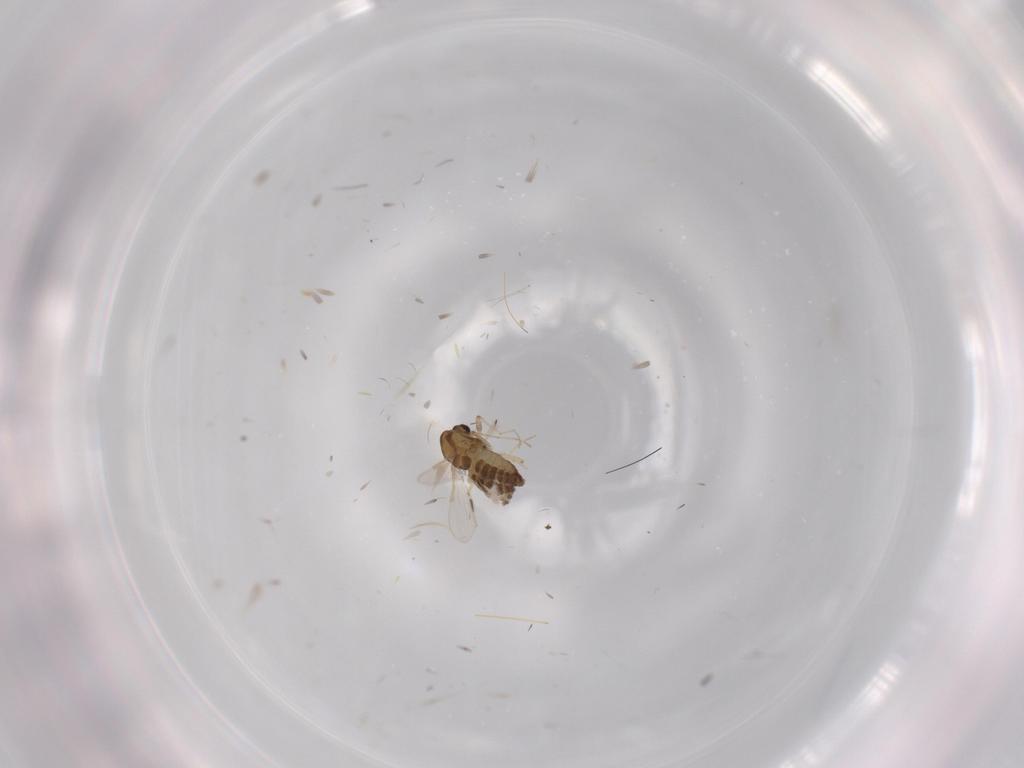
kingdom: Animalia
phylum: Arthropoda
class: Insecta
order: Diptera
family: Chironomidae
